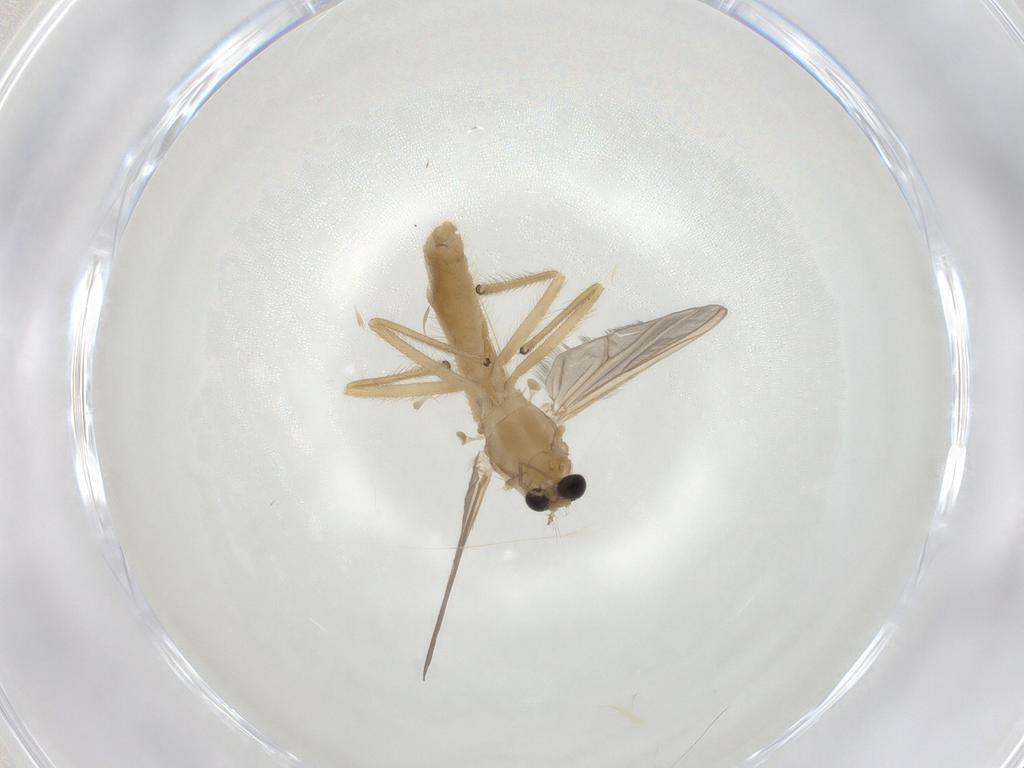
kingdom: Animalia
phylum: Arthropoda
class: Insecta
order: Diptera
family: Chironomidae
